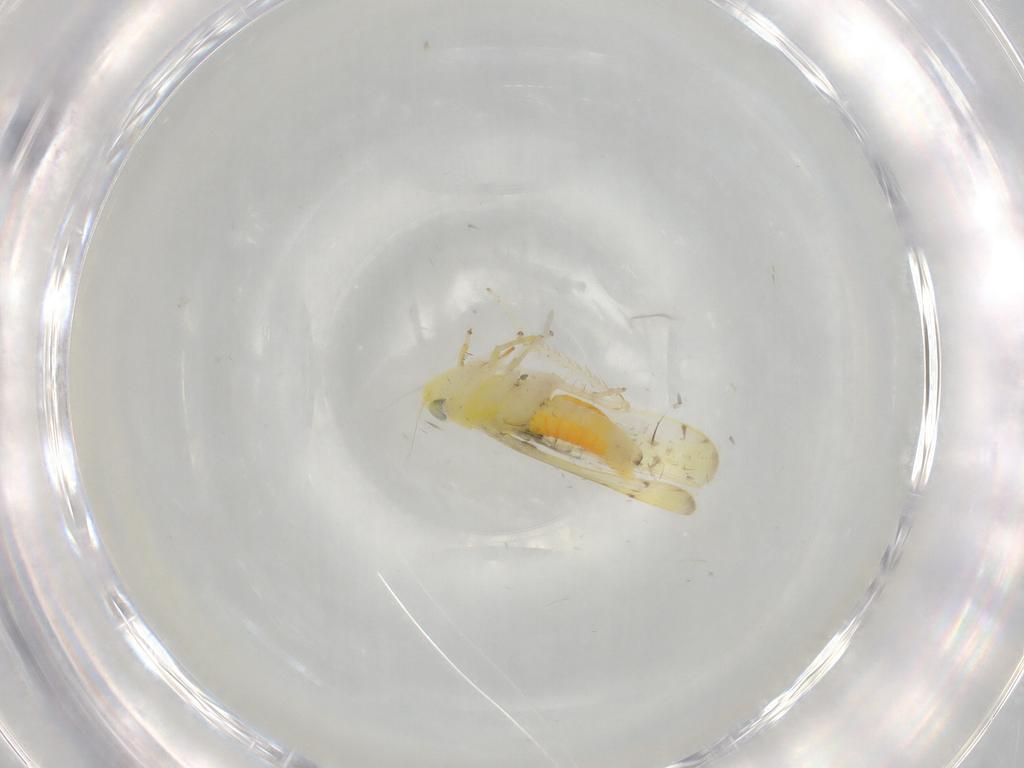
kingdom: Animalia
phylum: Arthropoda
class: Insecta
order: Hemiptera
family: Cicadellidae
